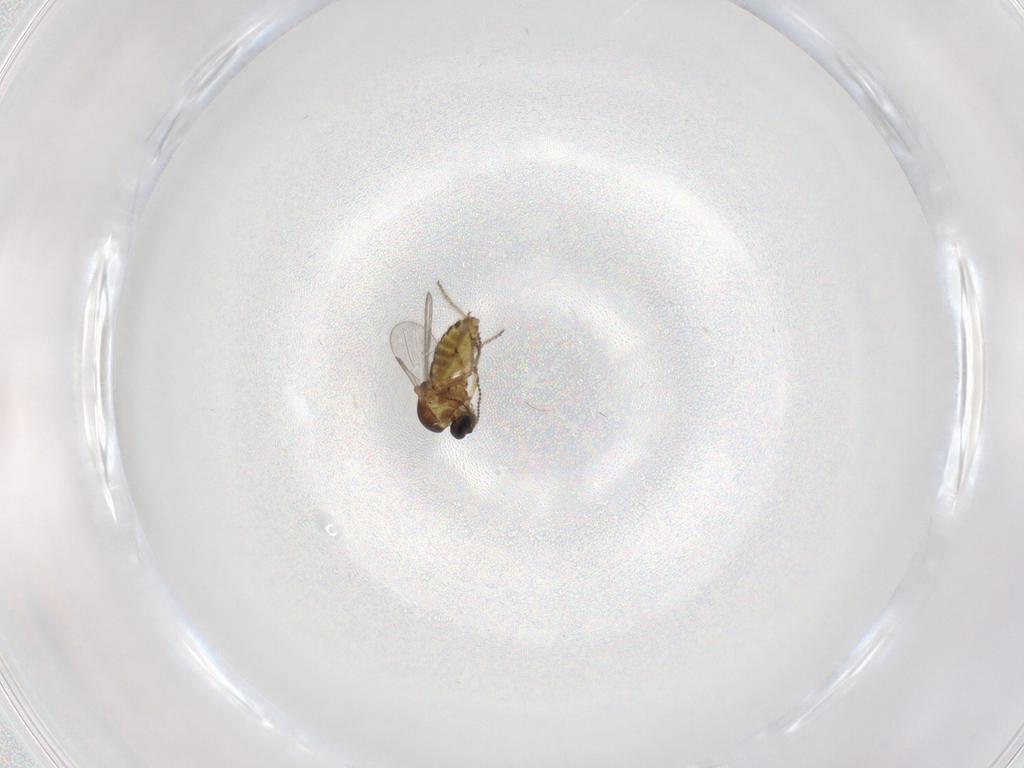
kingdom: Animalia
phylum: Arthropoda
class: Insecta
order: Diptera
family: Ceratopogonidae
